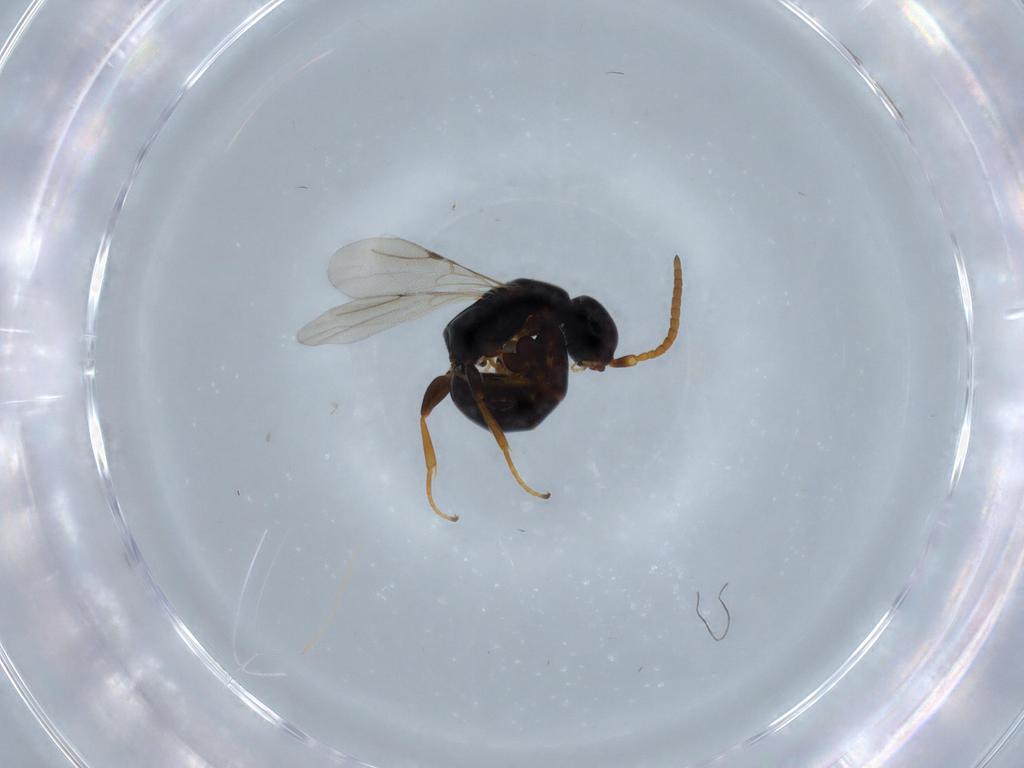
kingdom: Animalia
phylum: Arthropoda
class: Insecta
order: Hymenoptera
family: Bethylidae
